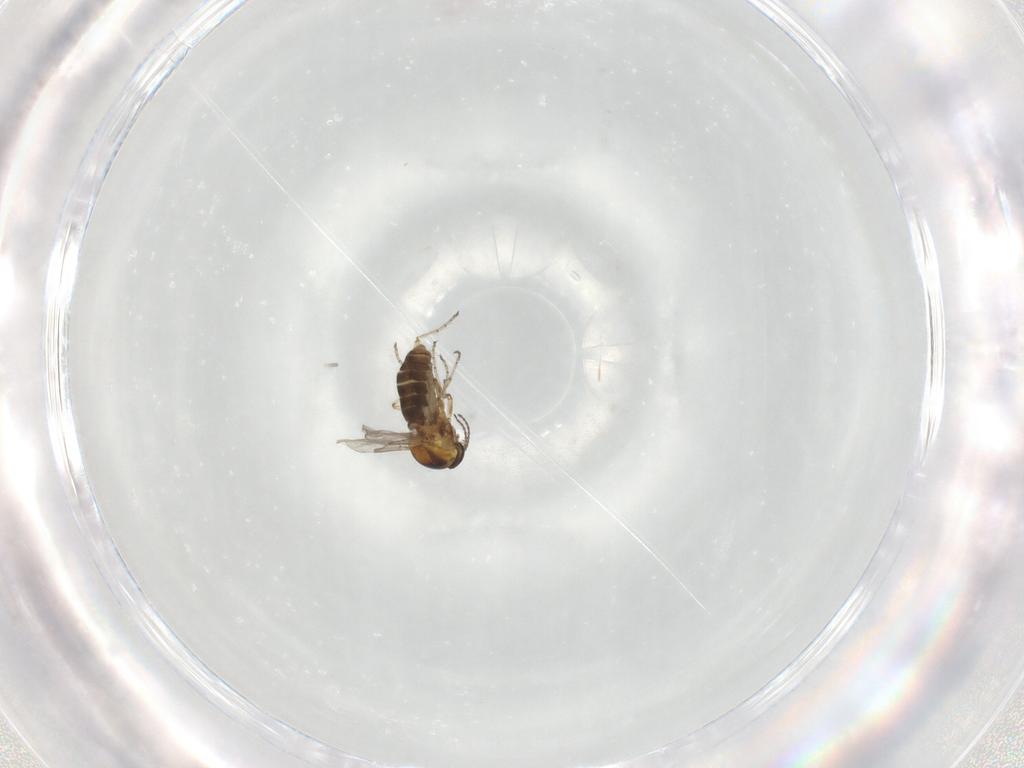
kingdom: Animalia
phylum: Arthropoda
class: Insecta
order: Diptera
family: Ceratopogonidae
